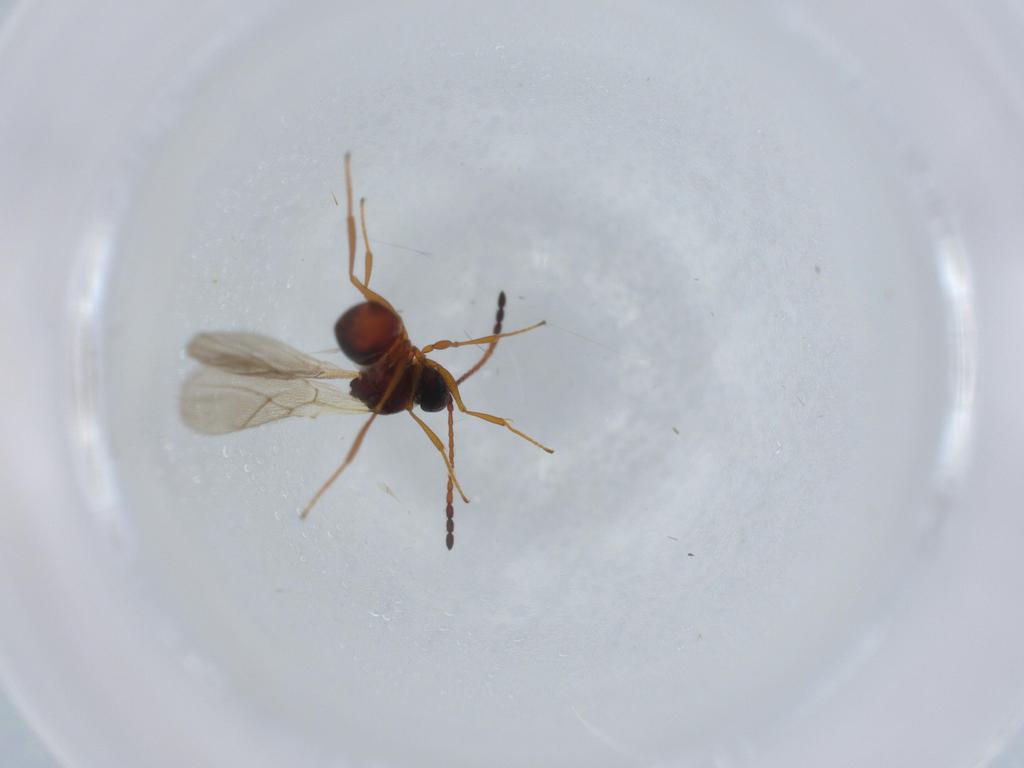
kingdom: Animalia
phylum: Arthropoda
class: Insecta
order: Hymenoptera
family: Figitidae
